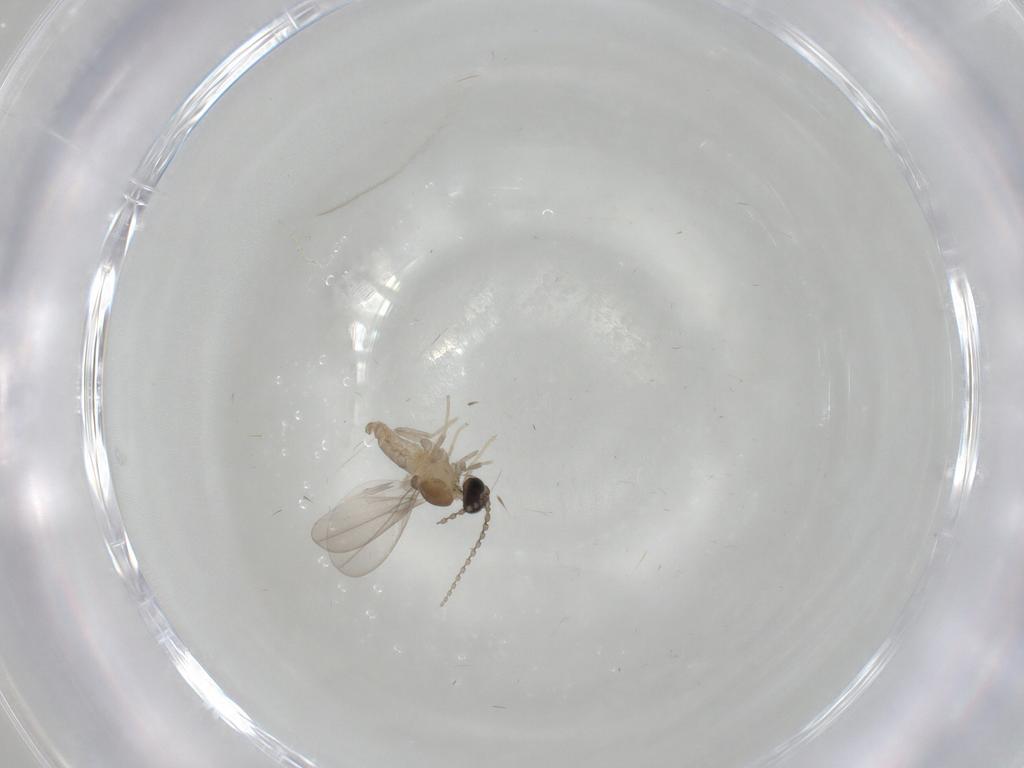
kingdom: Animalia
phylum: Arthropoda
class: Insecta
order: Diptera
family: Cecidomyiidae
